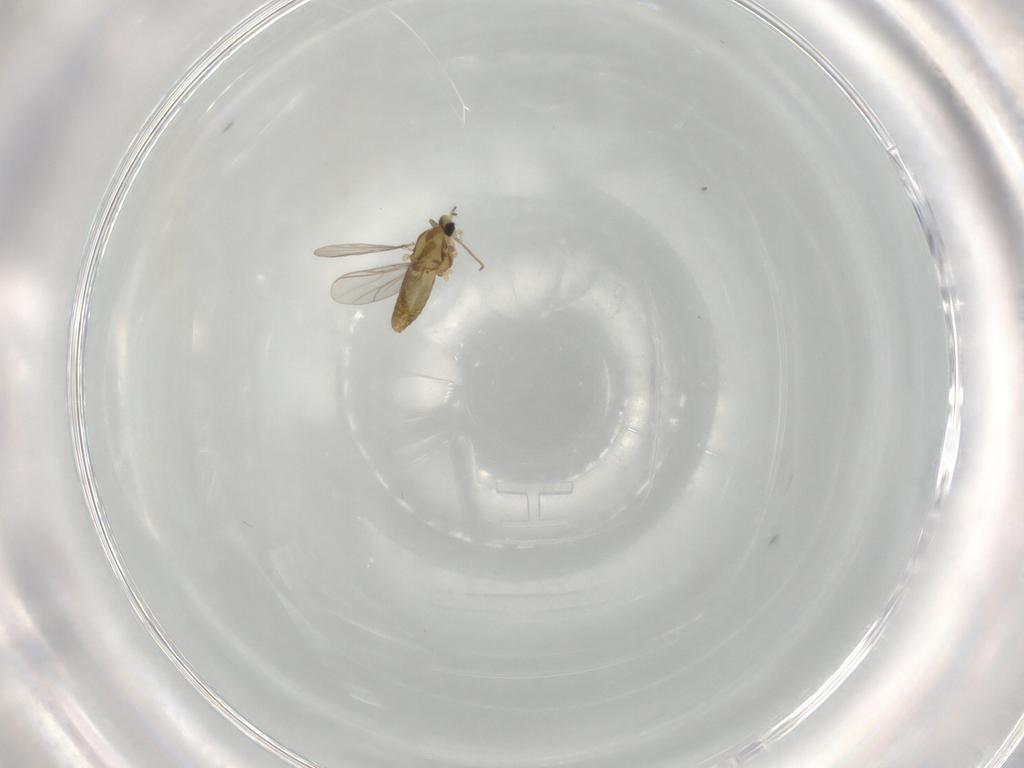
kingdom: Animalia
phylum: Arthropoda
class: Insecta
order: Diptera
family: Chironomidae
